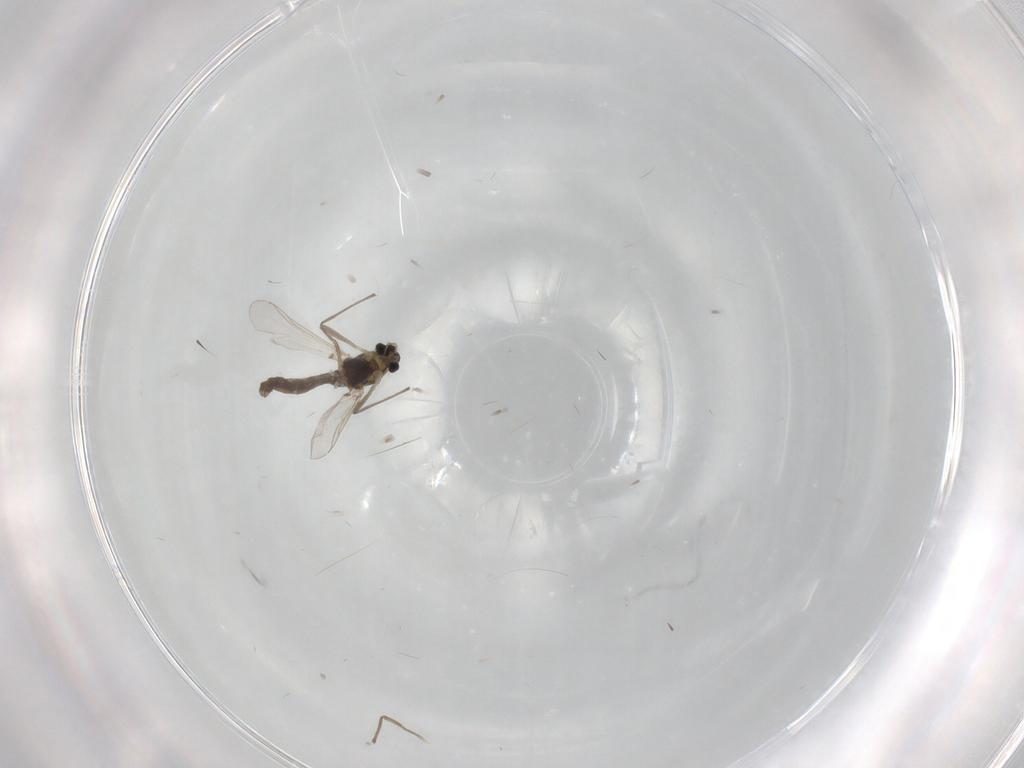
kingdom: Animalia
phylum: Arthropoda
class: Insecta
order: Diptera
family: Chironomidae
